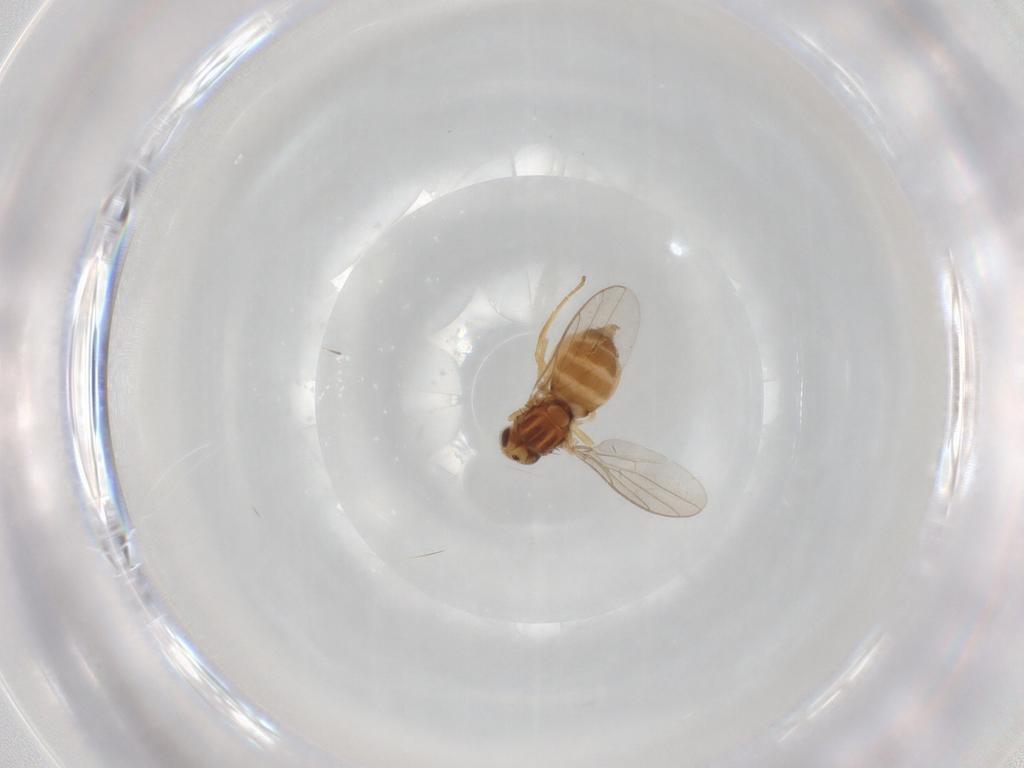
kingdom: Animalia
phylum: Arthropoda
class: Insecta
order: Diptera
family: Chloropidae
